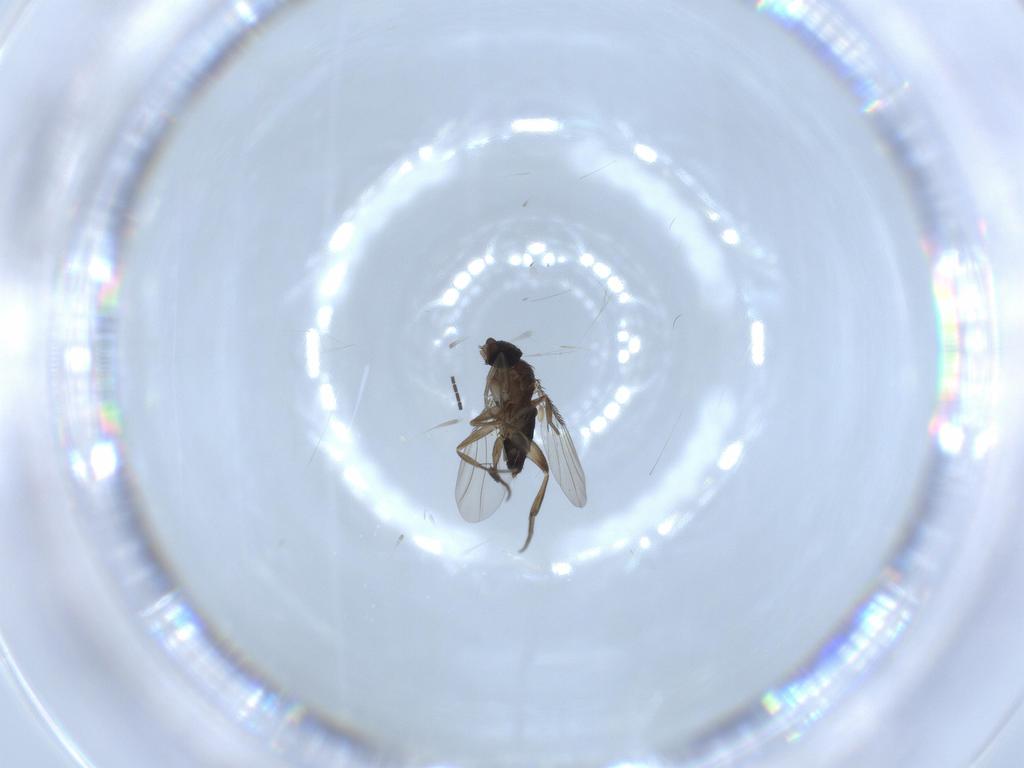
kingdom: Animalia
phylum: Arthropoda
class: Insecta
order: Diptera
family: Phoridae
